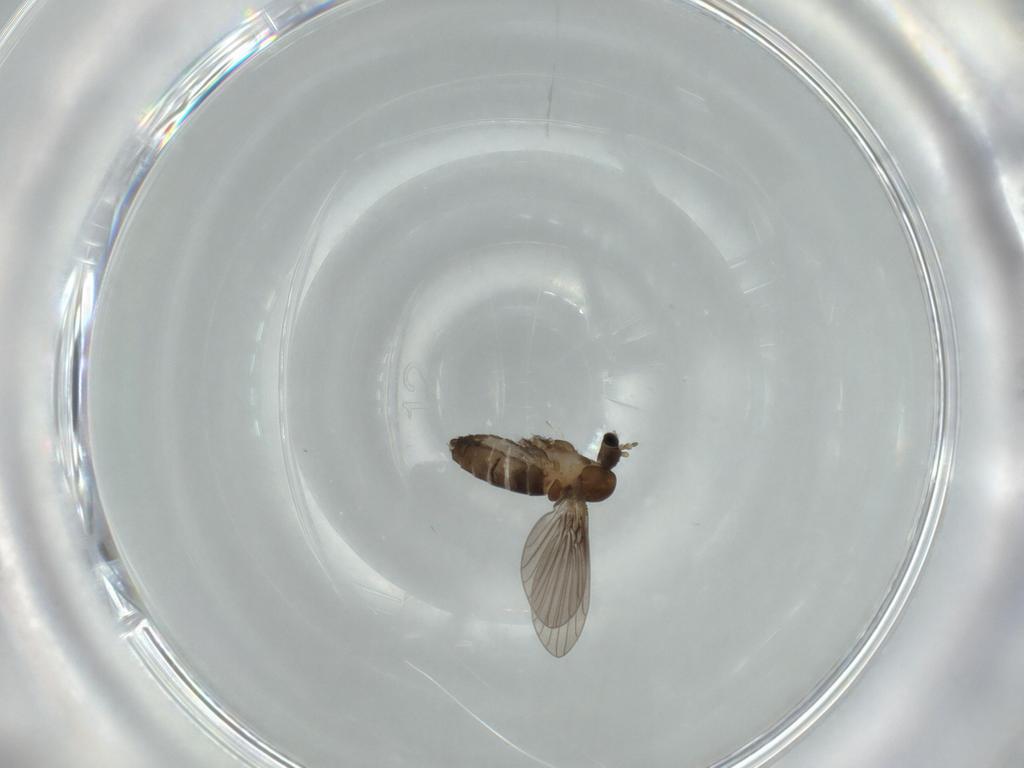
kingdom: Animalia
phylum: Arthropoda
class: Insecta
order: Diptera
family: Psychodidae
